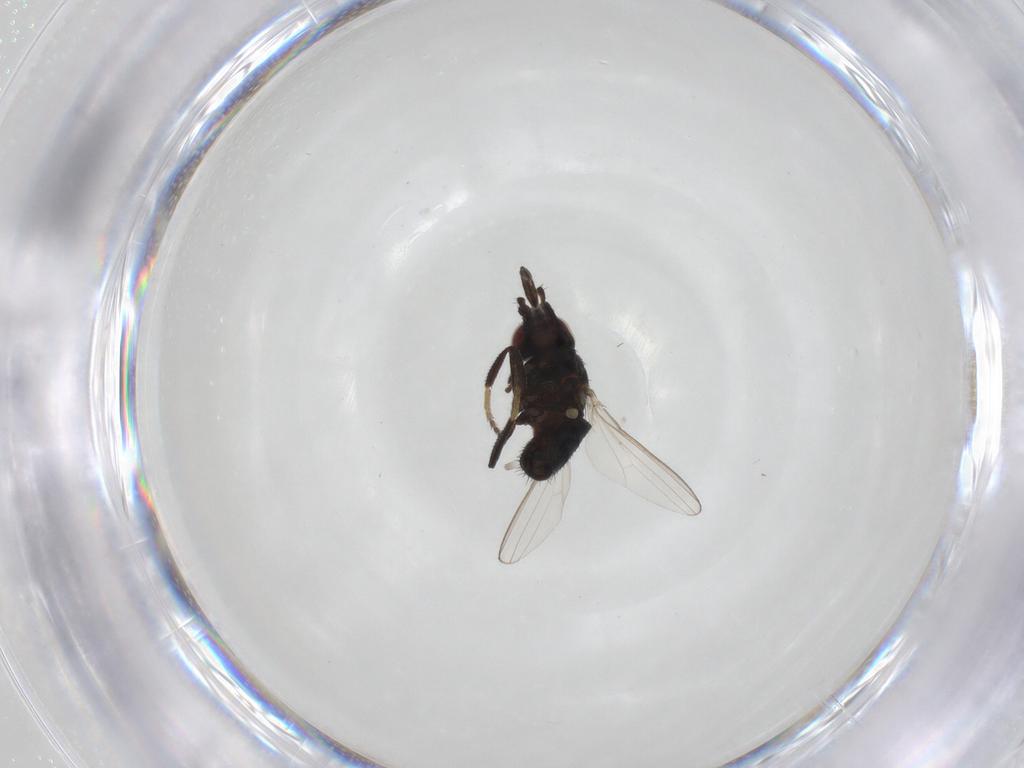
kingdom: Animalia
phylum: Arthropoda
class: Insecta
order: Diptera
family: Milichiidae
